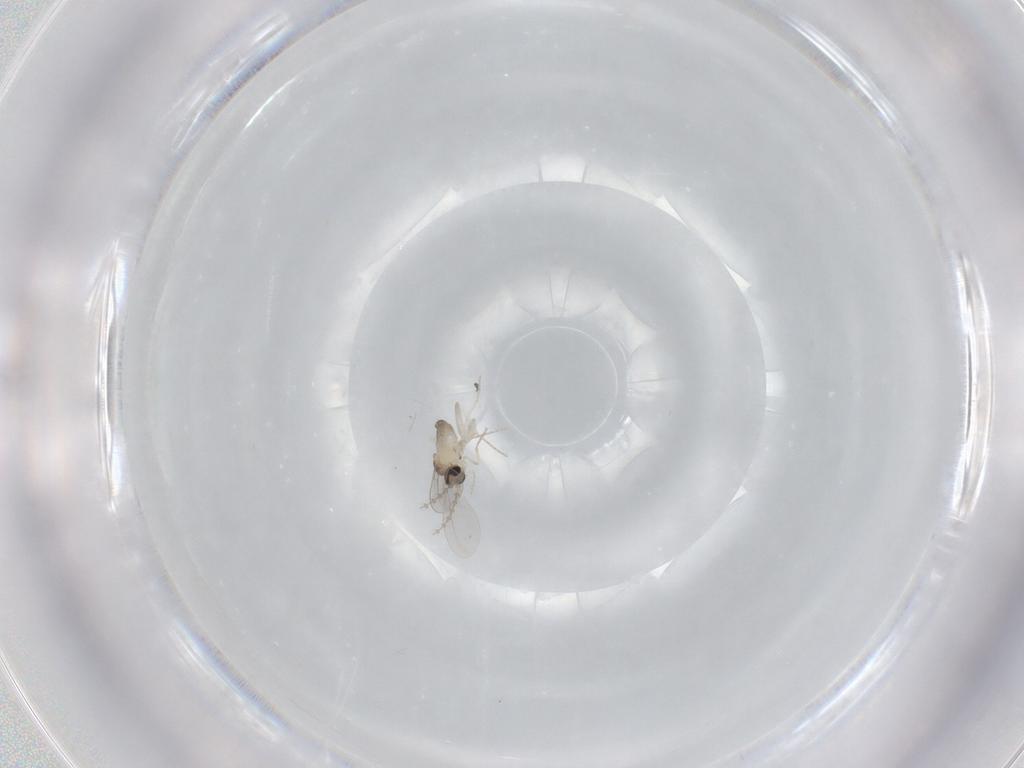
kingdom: Animalia
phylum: Arthropoda
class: Insecta
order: Diptera
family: Cecidomyiidae
